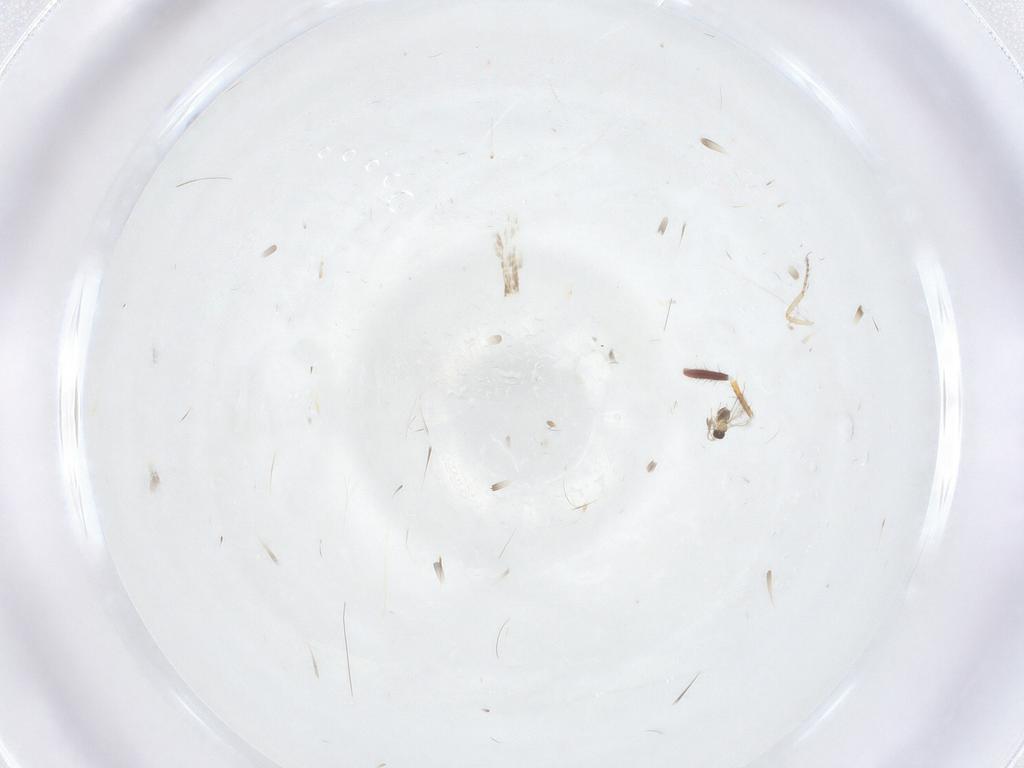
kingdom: Animalia
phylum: Arthropoda
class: Insecta
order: Diptera
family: Ceratopogonidae
